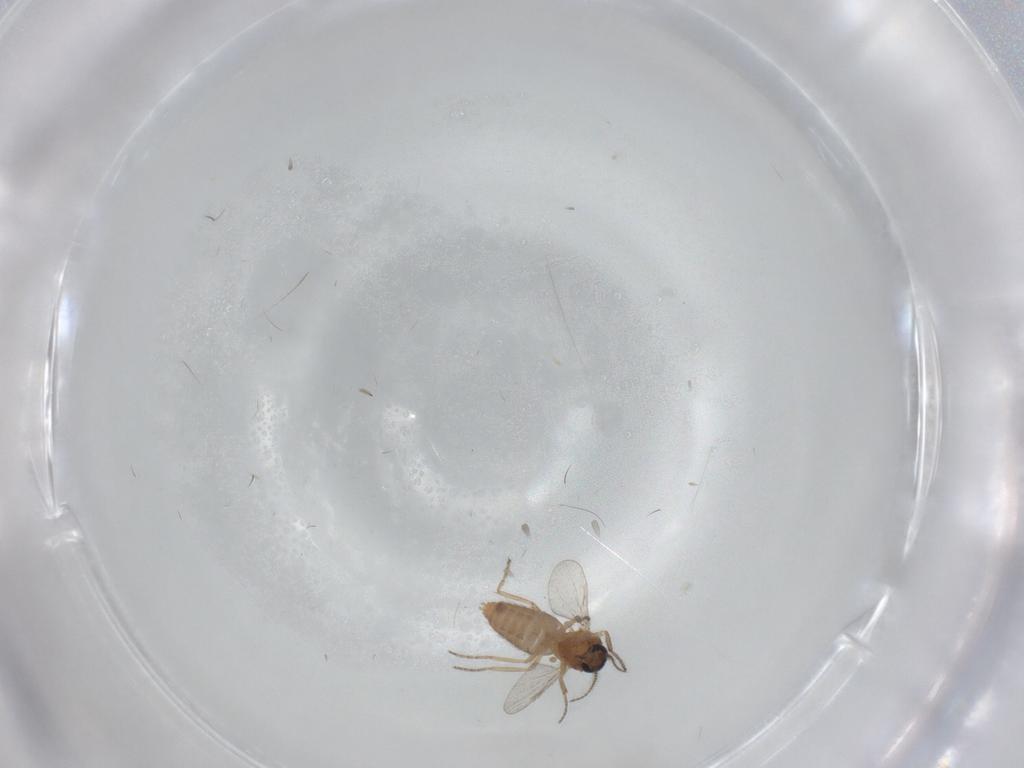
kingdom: Animalia
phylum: Arthropoda
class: Insecta
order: Diptera
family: Ceratopogonidae
